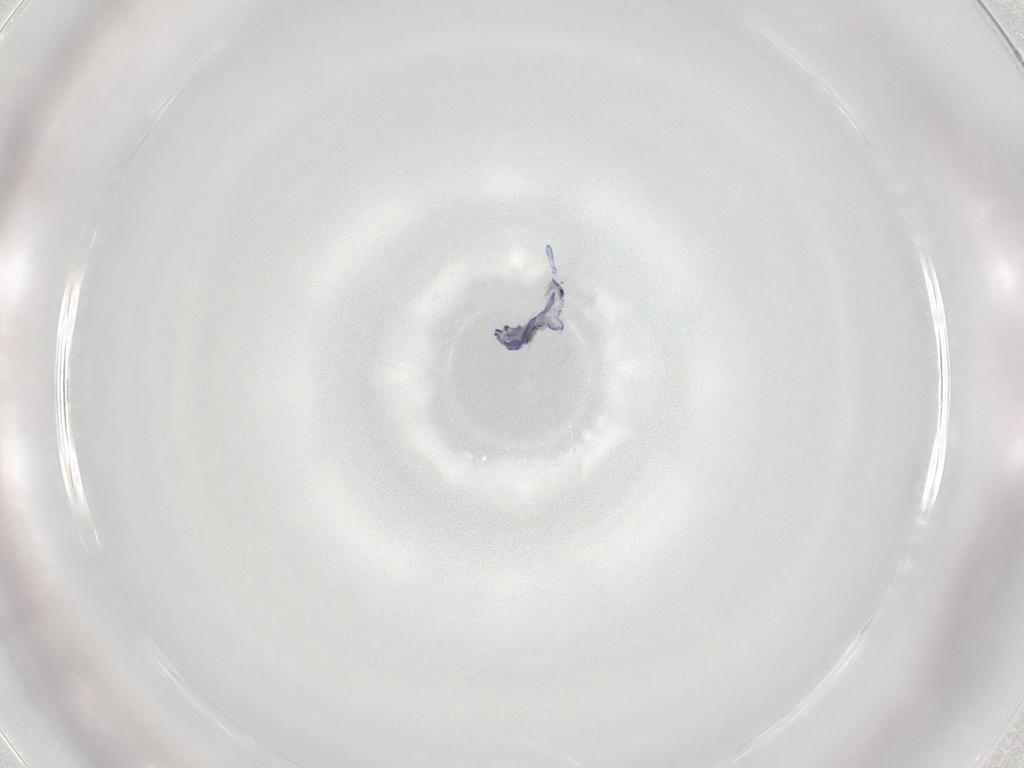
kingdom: Animalia
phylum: Arthropoda
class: Collembola
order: Entomobryomorpha
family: Entomobryidae
